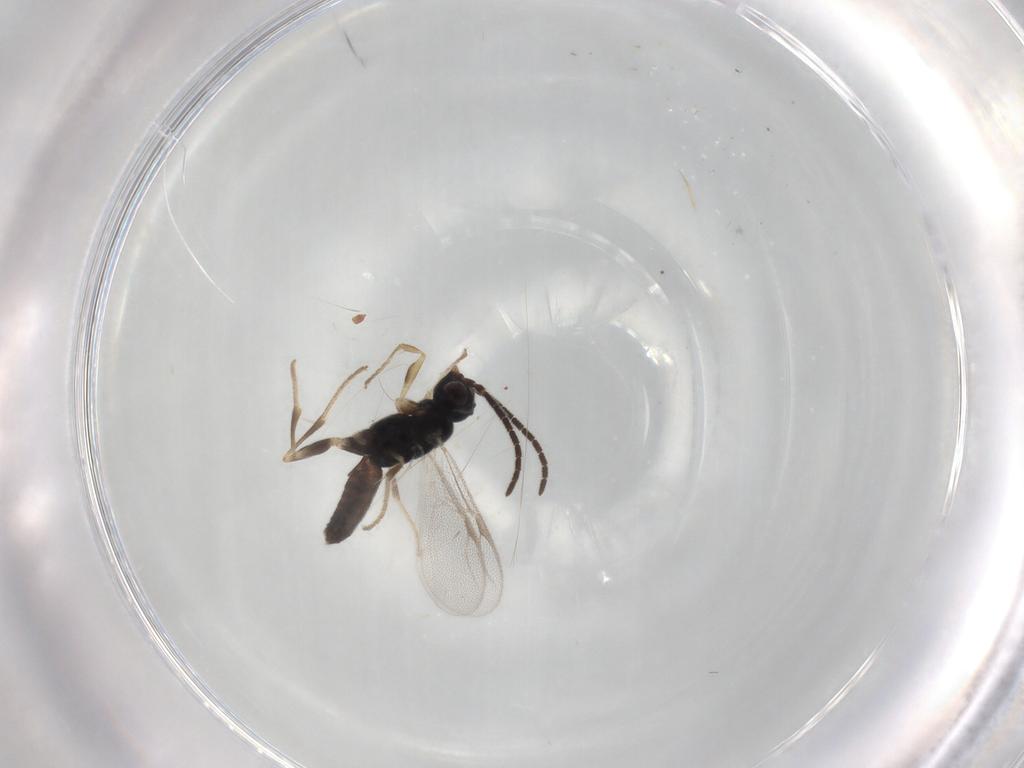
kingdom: Animalia
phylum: Arthropoda
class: Insecta
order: Hymenoptera
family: Dryinidae
